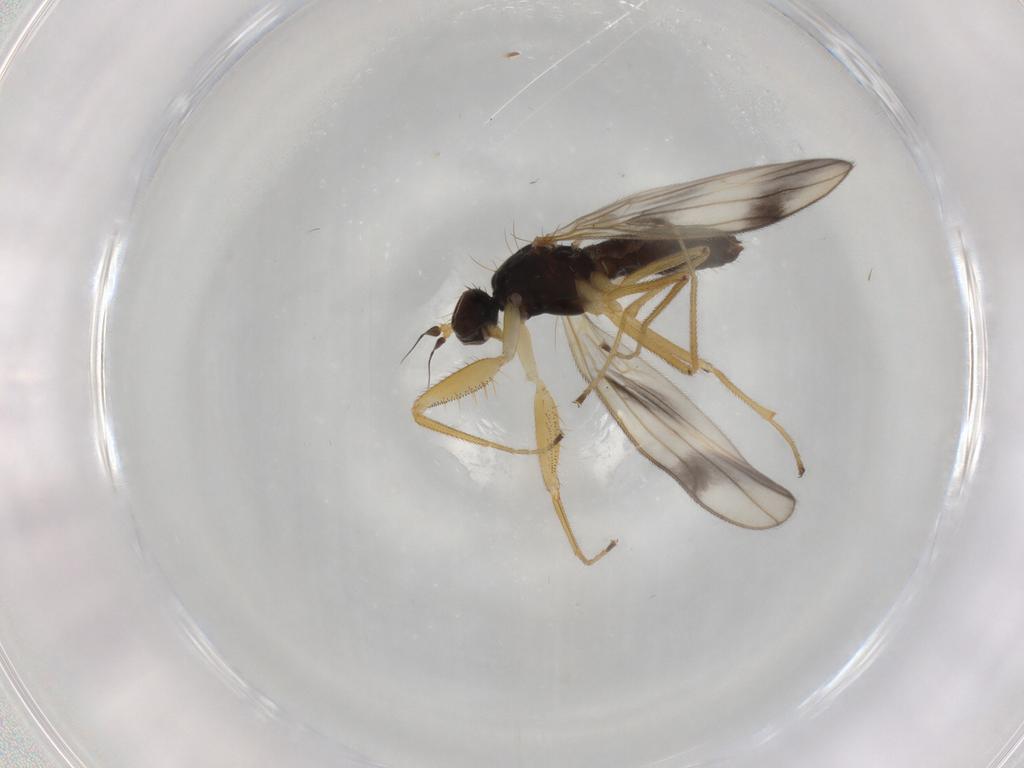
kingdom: Animalia
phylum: Arthropoda
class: Insecta
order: Diptera
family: Empididae
